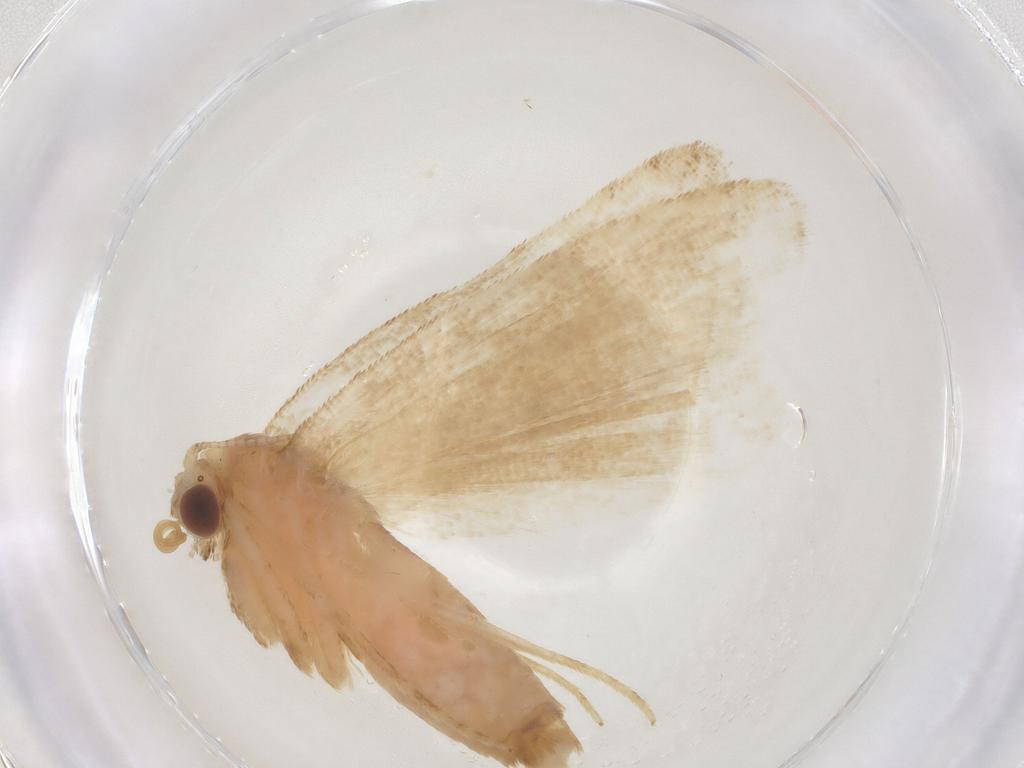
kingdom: Animalia
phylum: Arthropoda
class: Insecta
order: Lepidoptera
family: Noctuidae
